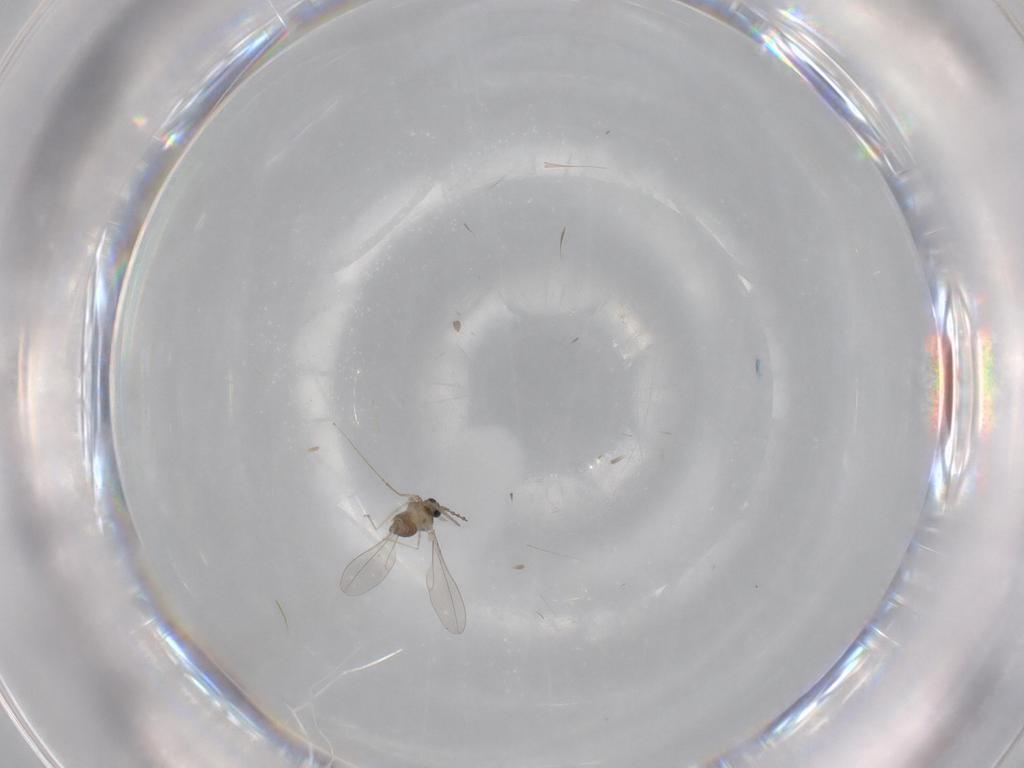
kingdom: Animalia
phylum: Arthropoda
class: Insecta
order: Diptera
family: Cecidomyiidae
